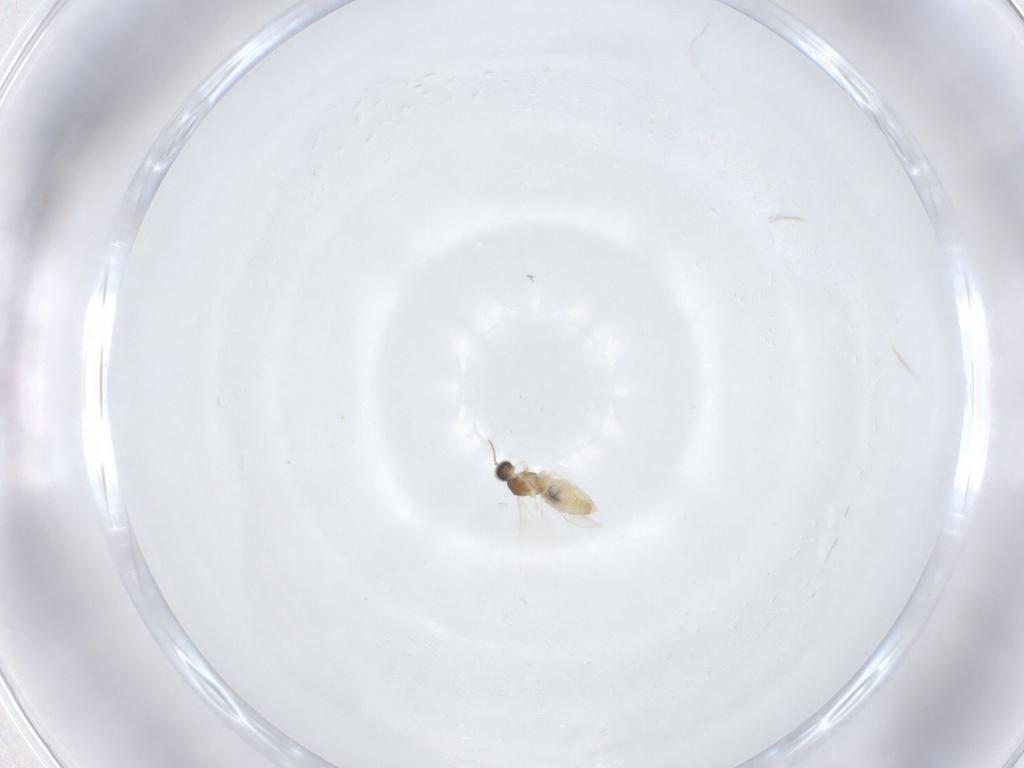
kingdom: Animalia
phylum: Arthropoda
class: Insecta
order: Diptera
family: Cecidomyiidae
